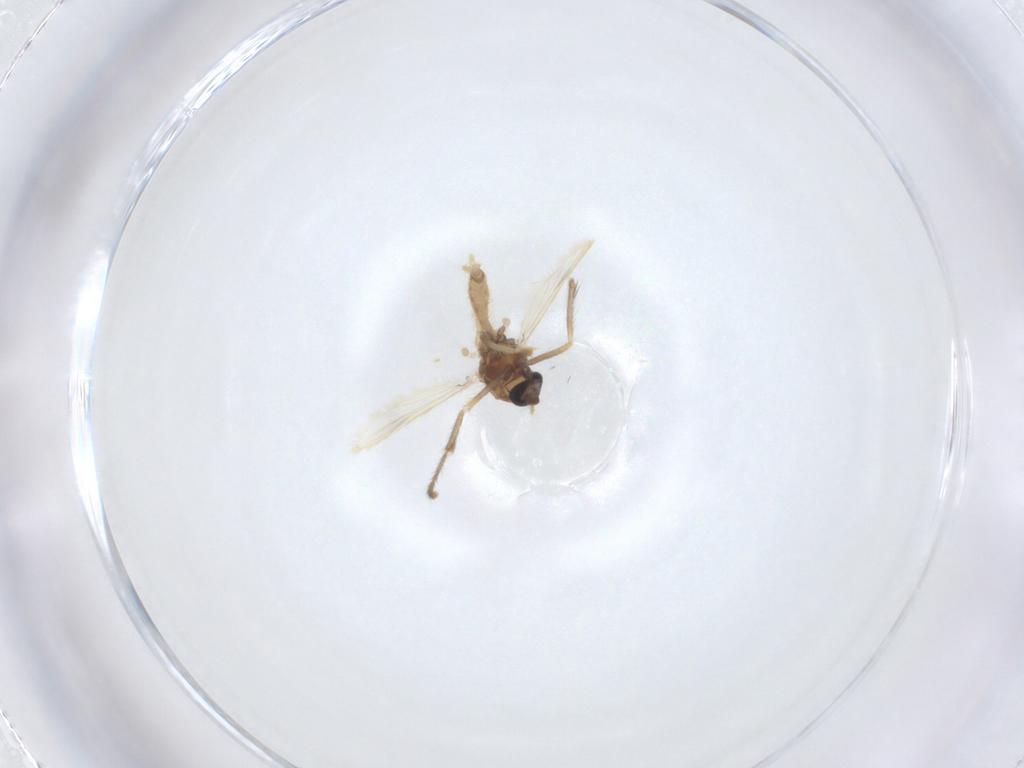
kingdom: Animalia
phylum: Arthropoda
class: Insecta
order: Diptera
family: Corethrellidae
